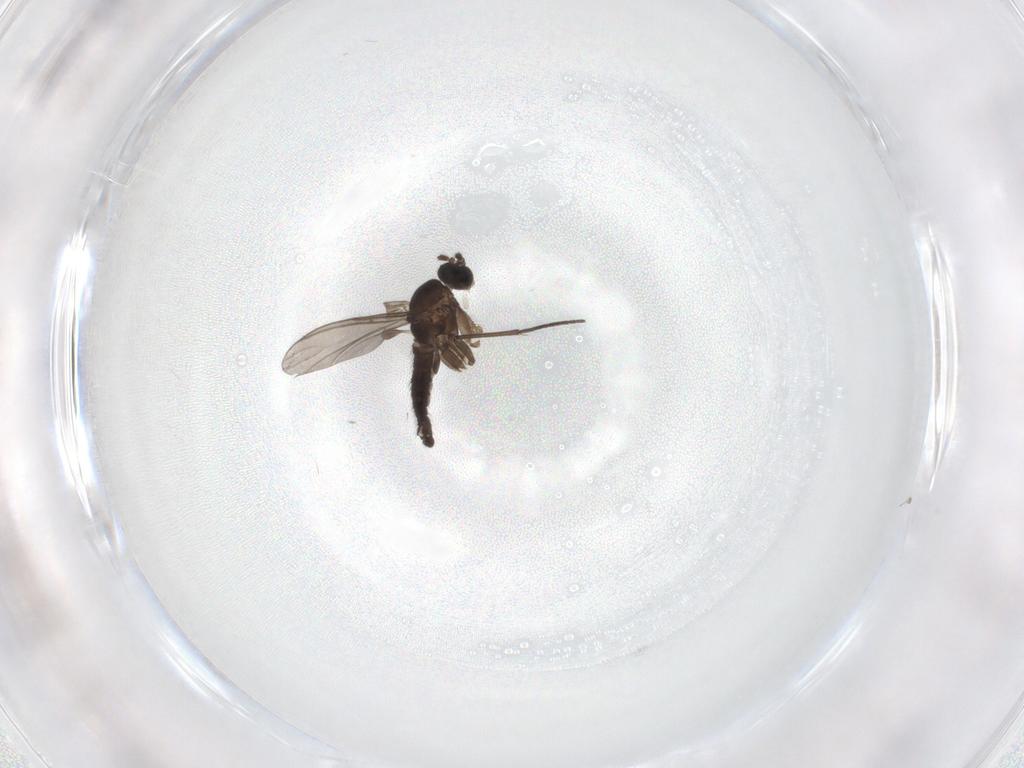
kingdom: Animalia
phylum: Arthropoda
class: Insecta
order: Diptera
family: Sciaridae
